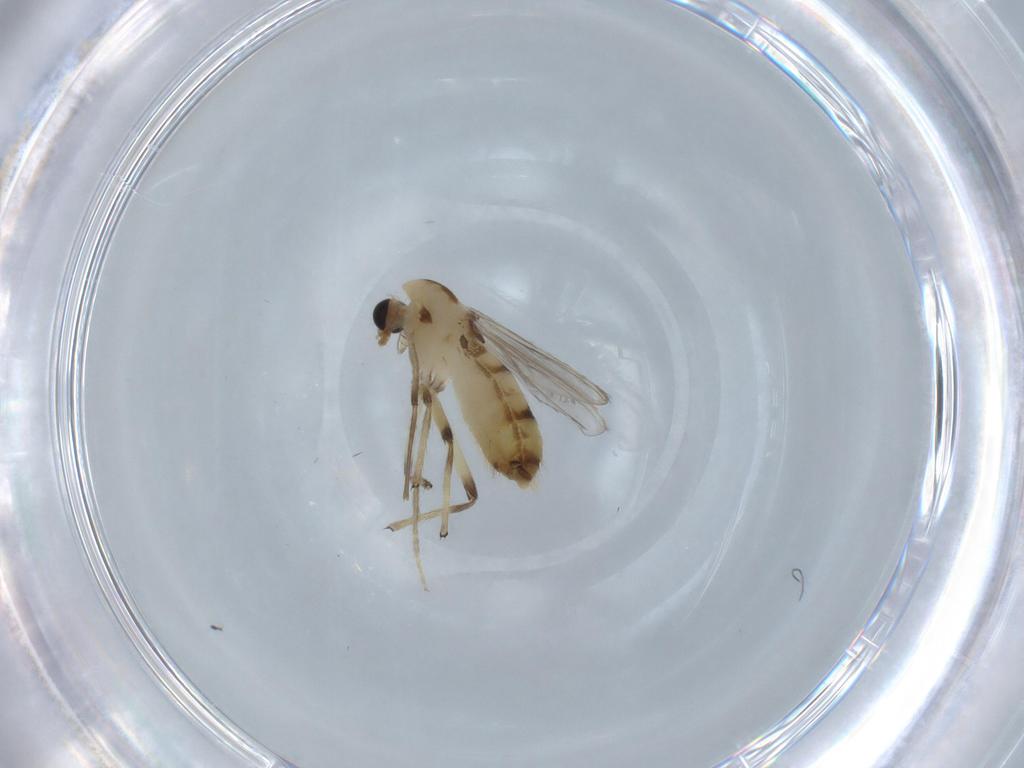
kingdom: Animalia
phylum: Arthropoda
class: Insecta
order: Diptera
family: Chironomidae
